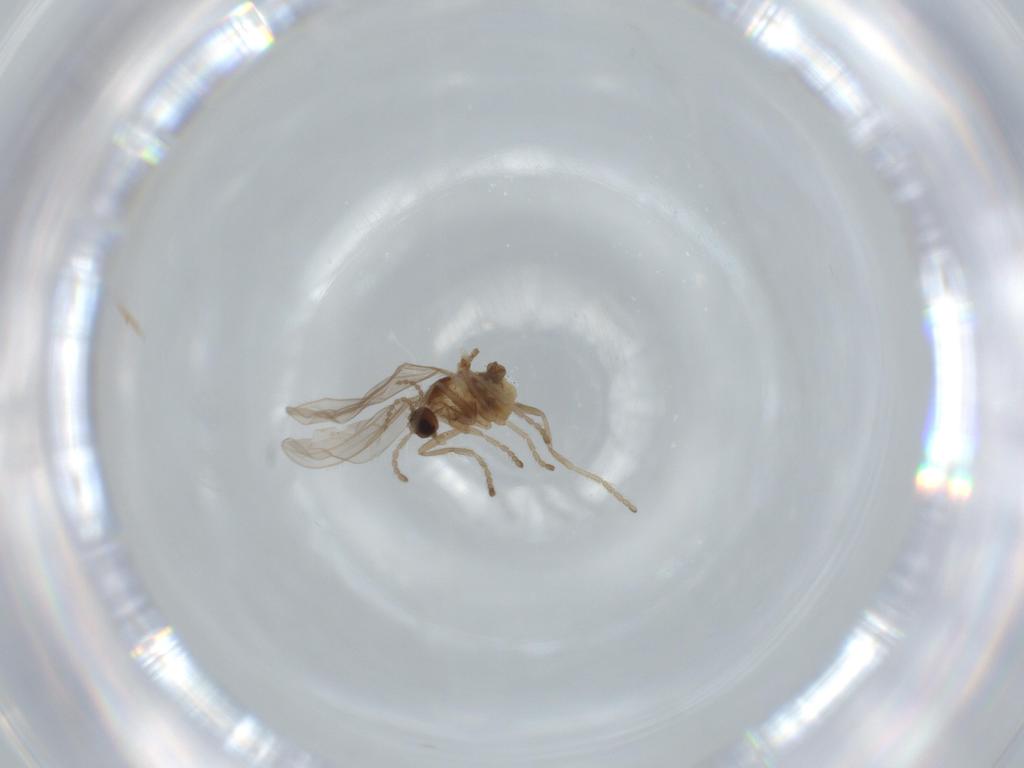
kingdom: Animalia
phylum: Arthropoda
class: Insecta
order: Diptera
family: Cecidomyiidae
